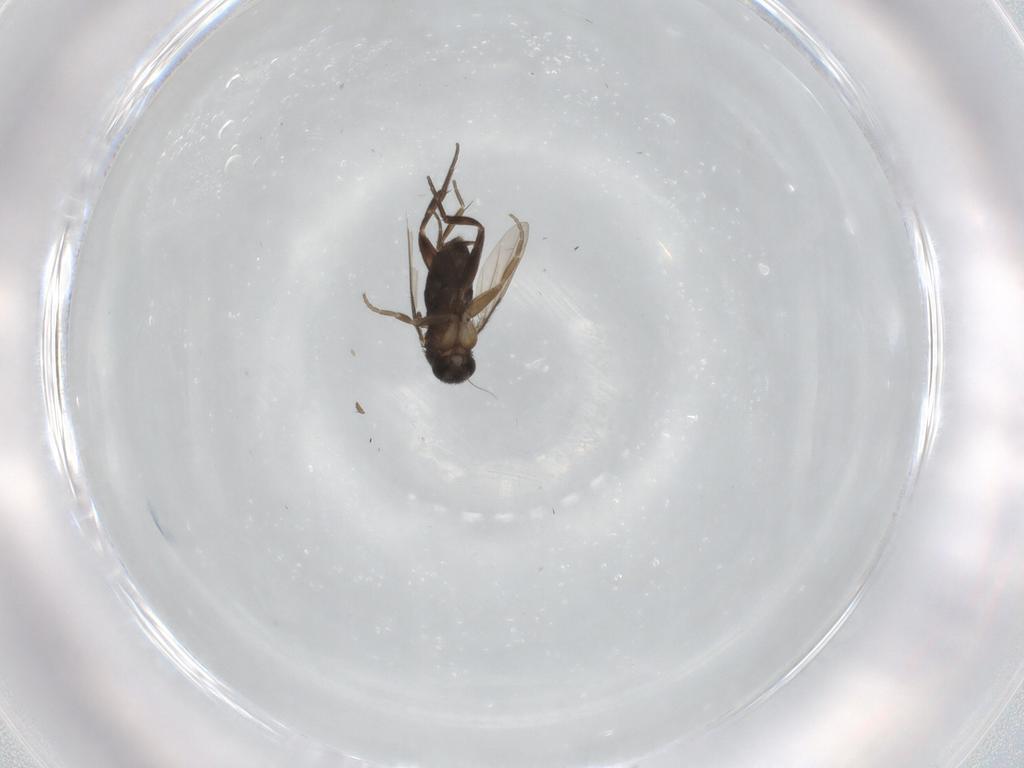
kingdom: Animalia
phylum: Arthropoda
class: Insecta
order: Diptera
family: Phoridae
